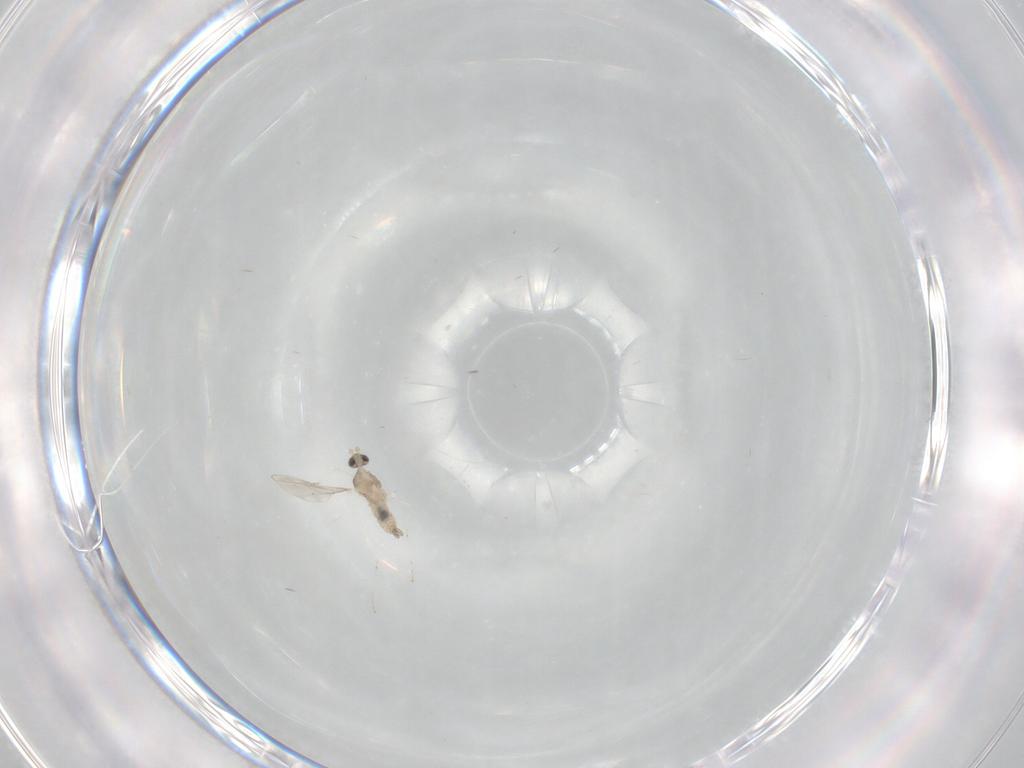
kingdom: Animalia
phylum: Arthropoda
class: Insecta
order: Diptera
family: Cecidomyiidae
